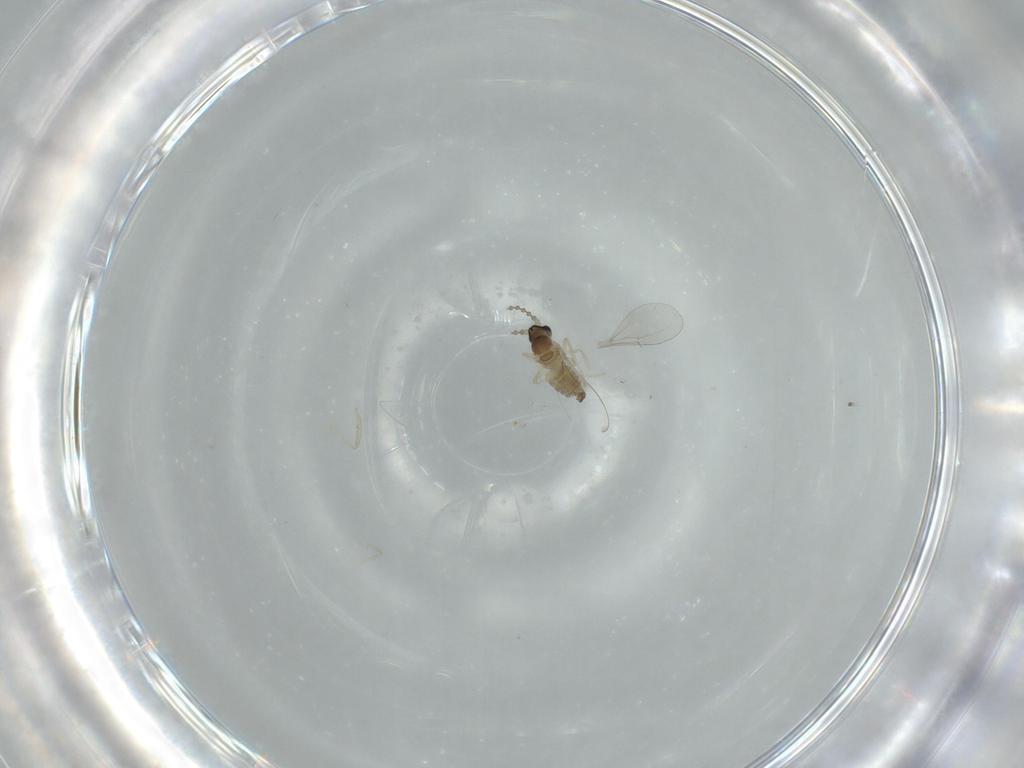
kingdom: Animalia
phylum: Arthropoda
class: Insecta
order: Diptera
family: Cecidomyiidae
